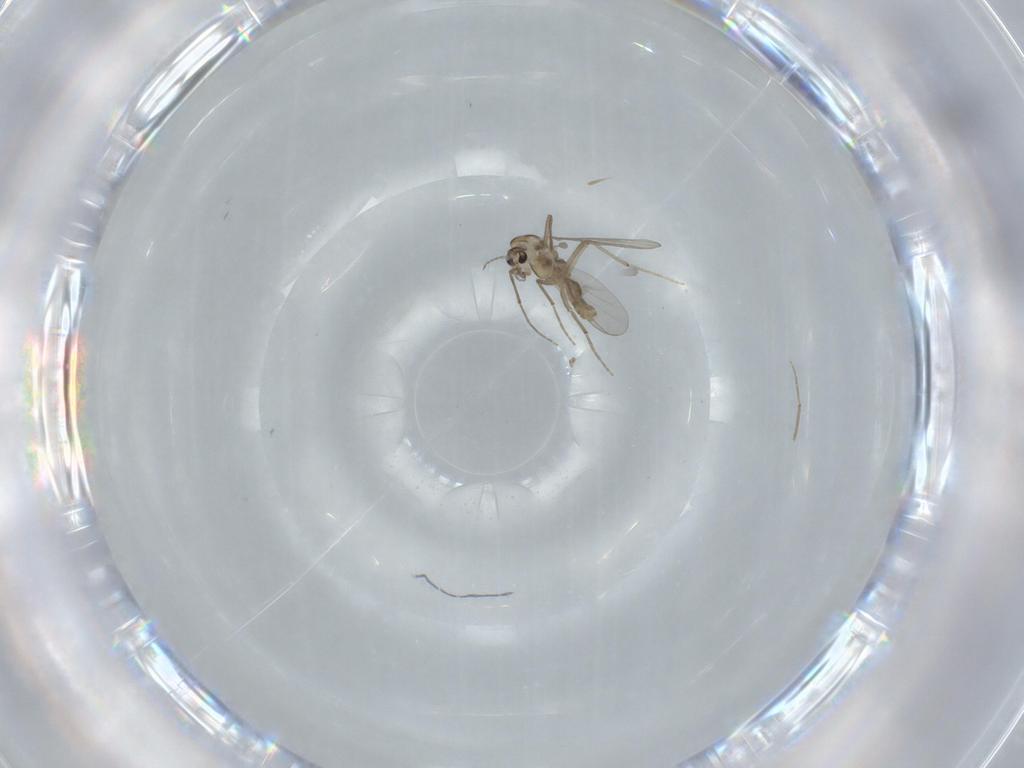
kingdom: Animalia
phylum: Arthropoda
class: Insecta
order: Diptera
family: Chironomidae
